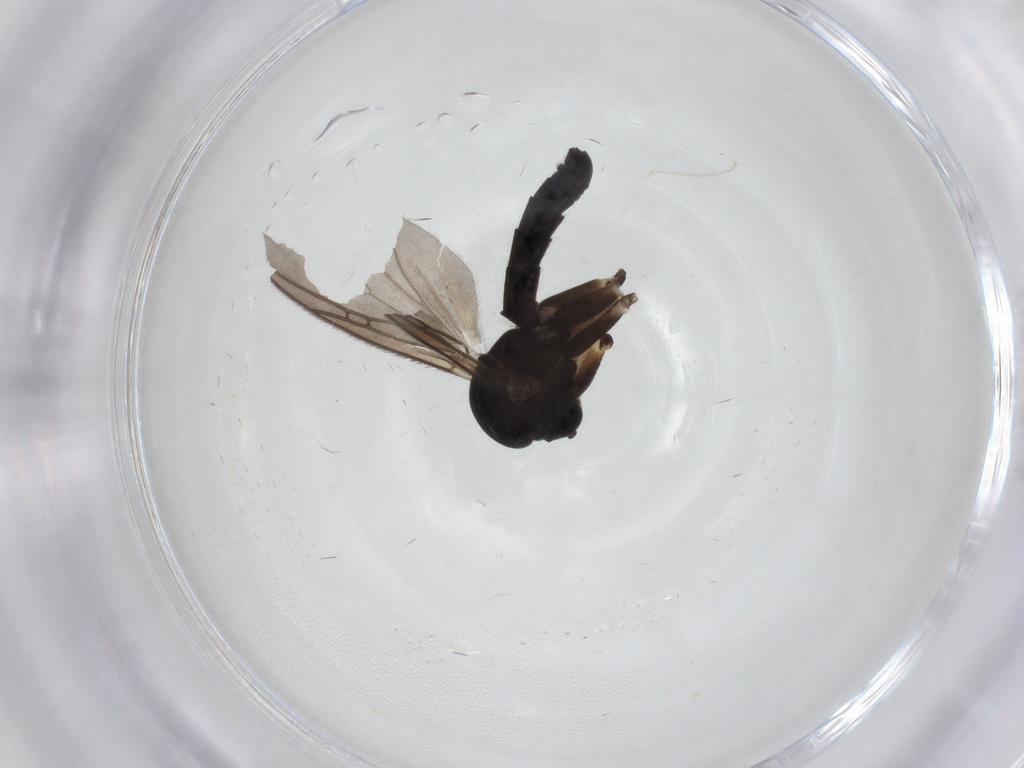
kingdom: Animalia
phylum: Arthropoda
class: Insecta
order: Diptera
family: Cecidomyiidae
